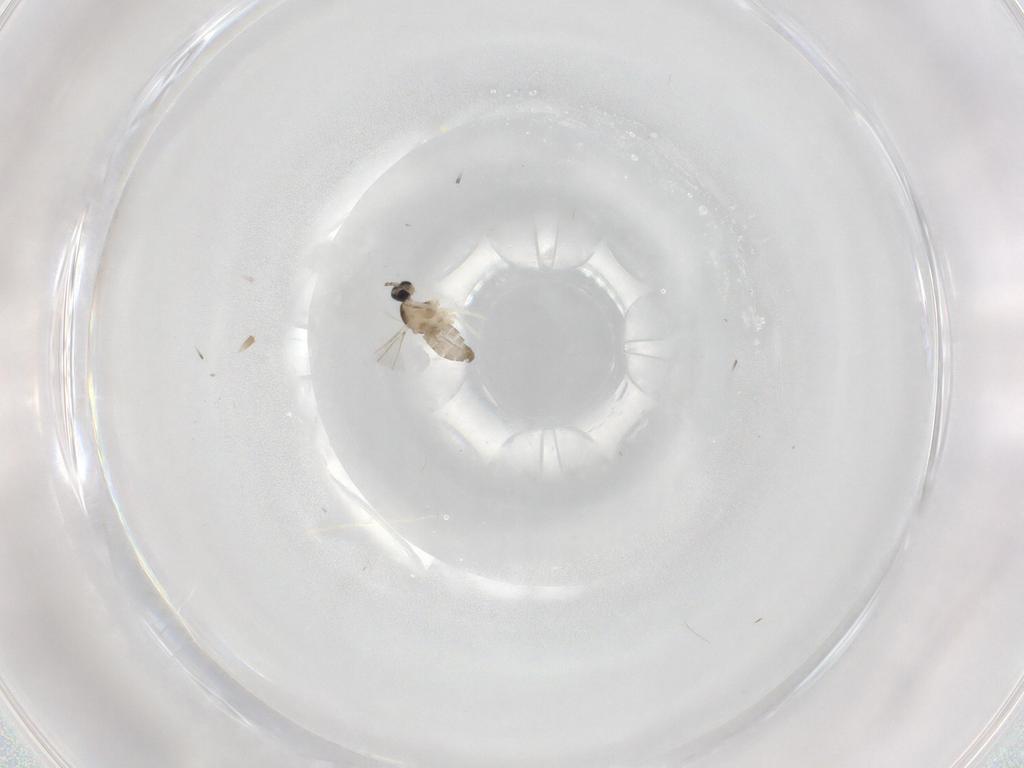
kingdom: Animalia
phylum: Arthropoda
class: Insecta
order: Diptera
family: Cecidomyiidae
